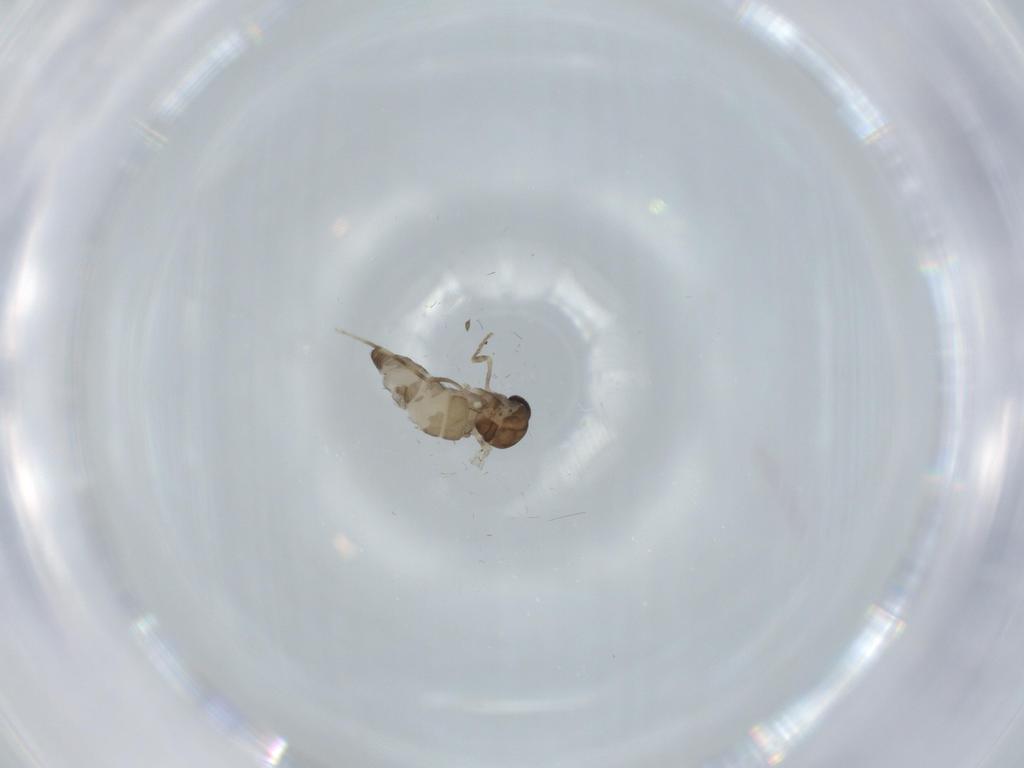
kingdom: Animalia
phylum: Arthropoda
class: Insecta
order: Diptera
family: Ceratopogonidae
